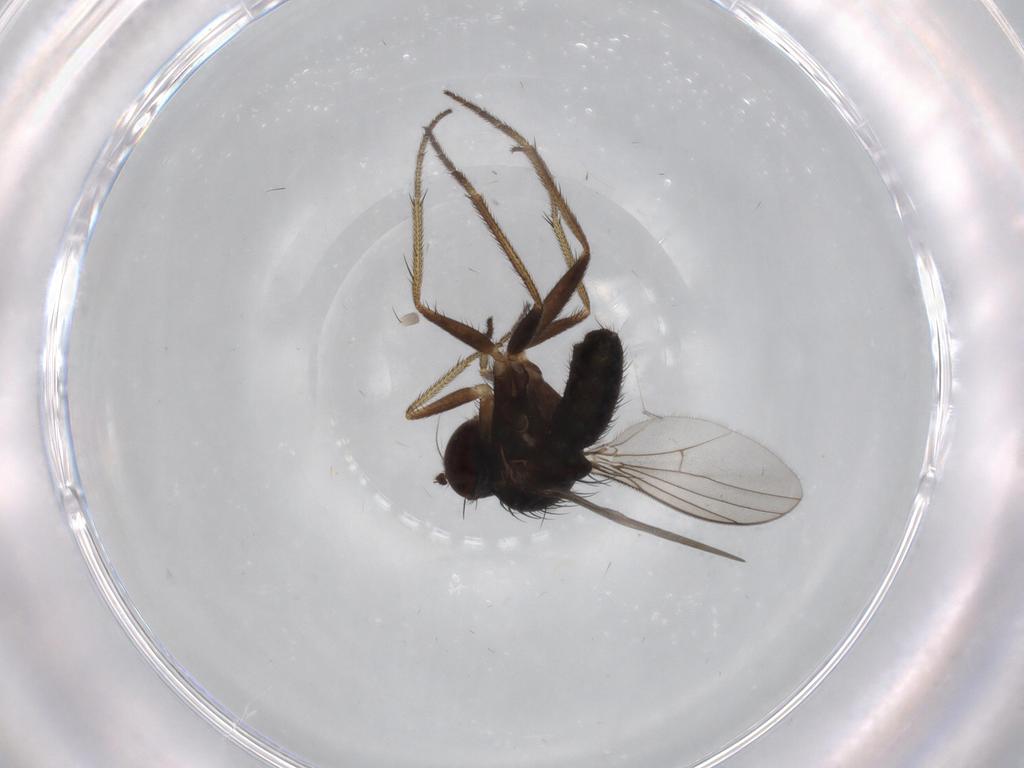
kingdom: Animalia
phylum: Arthropoda
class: Insecta
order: Diptera
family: Dolichopodidae
